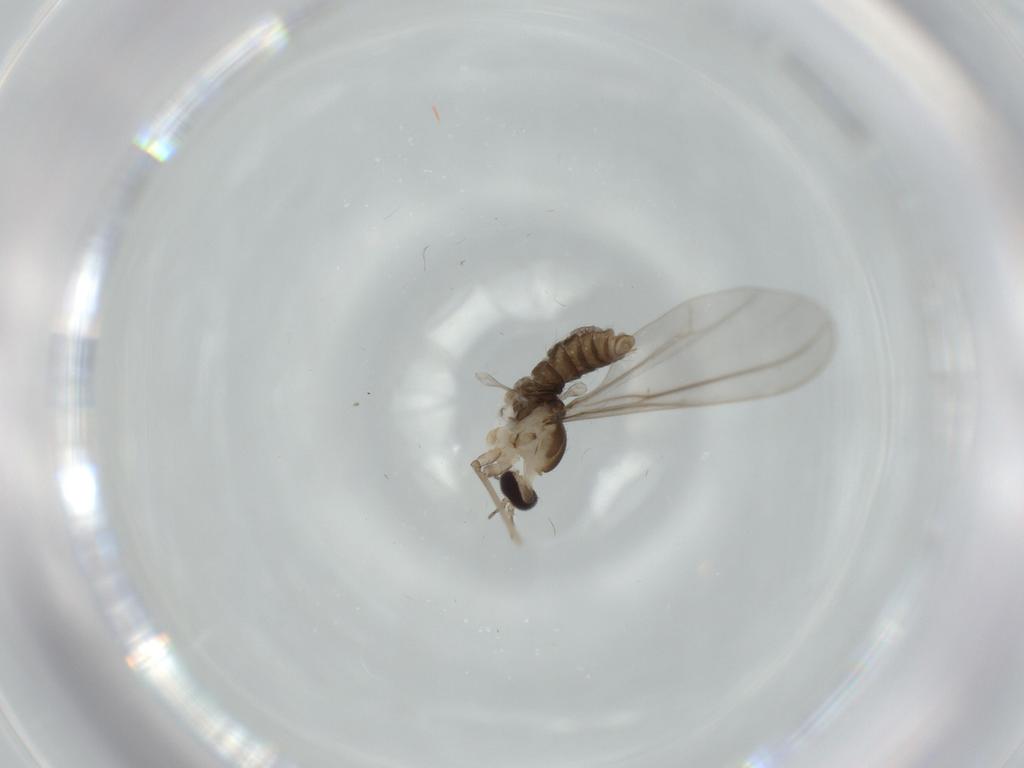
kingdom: Animalia
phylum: Arthropoda
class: Insecta
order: Diptera
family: Cecidomyiidae
